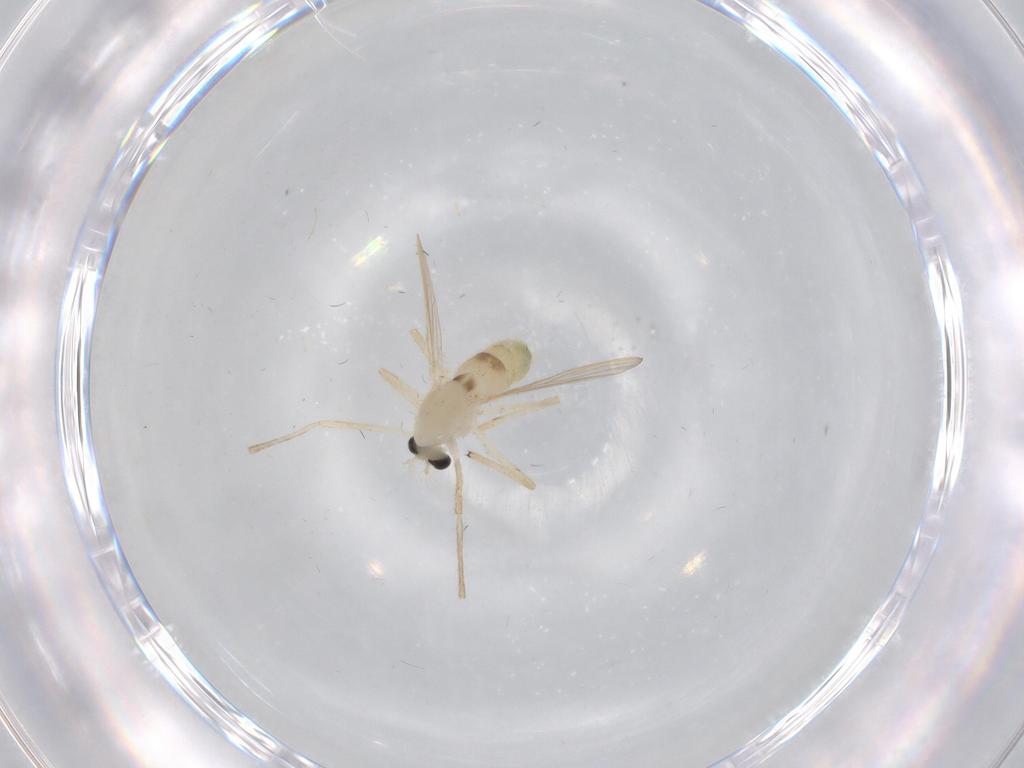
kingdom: Animalia
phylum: Arthropoda
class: Insecta
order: Diptera
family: Chironomidae
